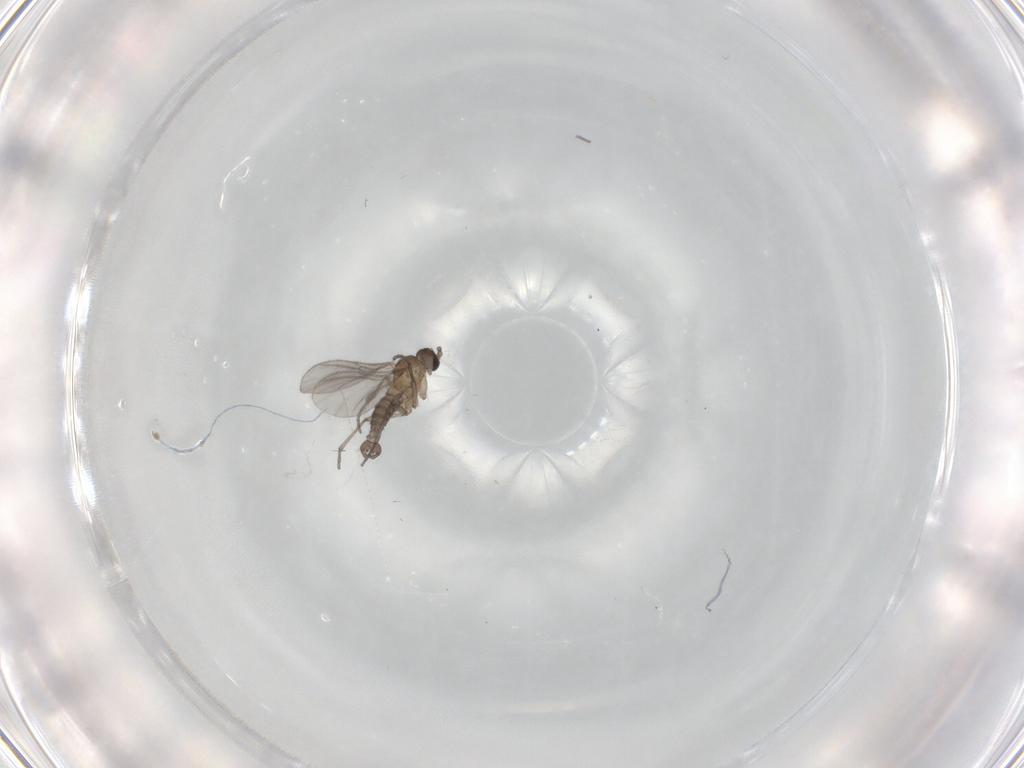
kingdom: Animalia
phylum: Arthropoda
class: Insecta
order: Diptera
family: Sciaridae
